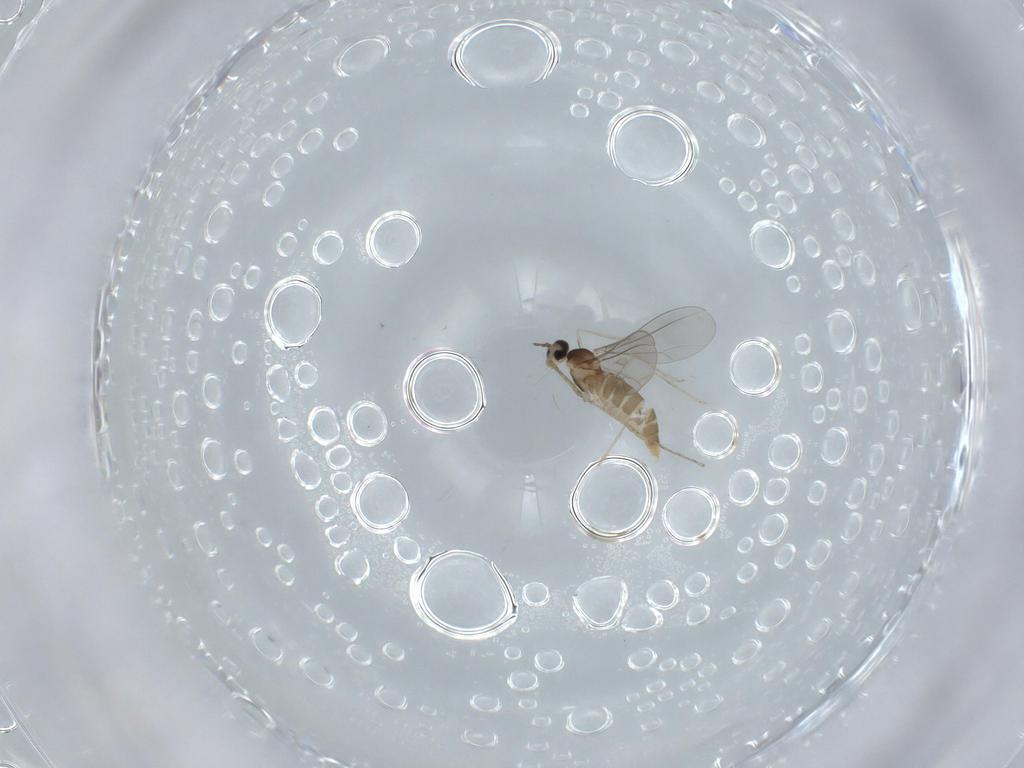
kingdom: Animalia
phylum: Arthropoda
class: Insecta
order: Diptera
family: Cecidomyiidae
